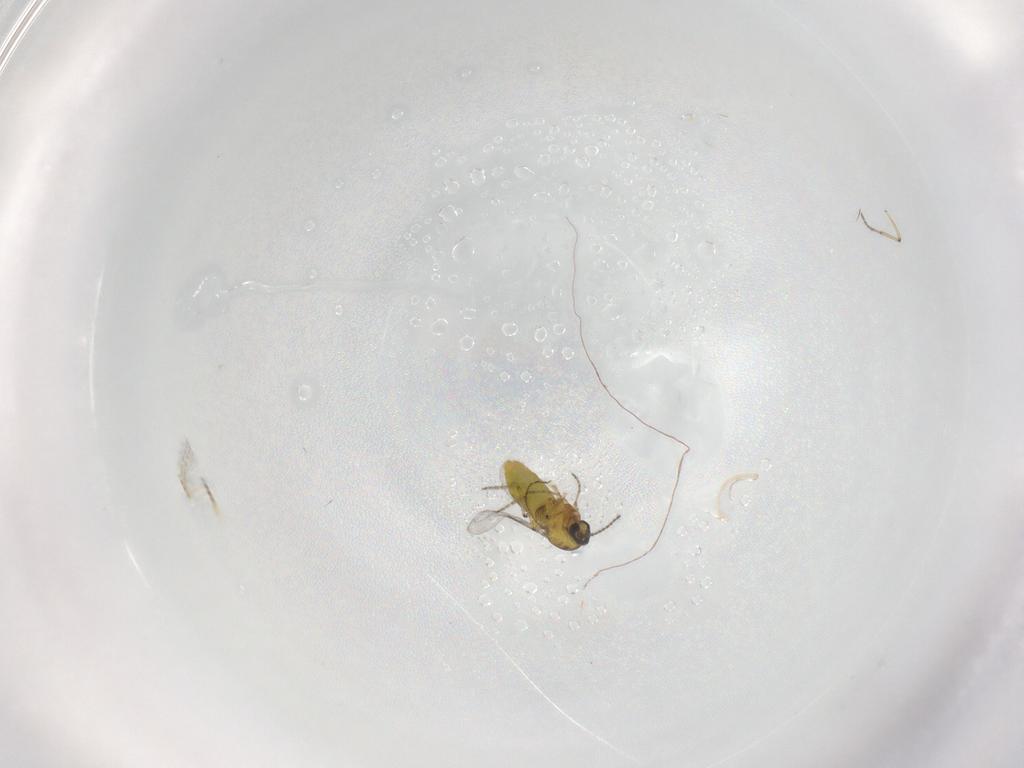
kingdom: Animalia
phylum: Arthropoda
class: Insecta
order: Diptera
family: Ceratopogonidae
